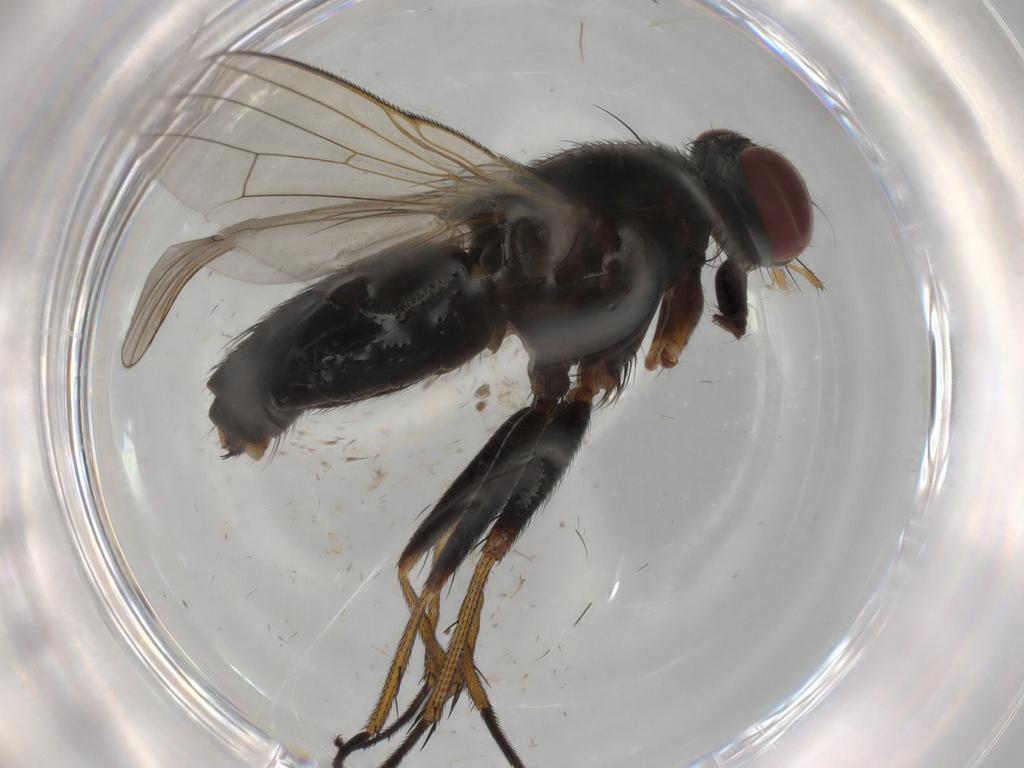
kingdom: Animalia
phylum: Arthropoda
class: Insecta
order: Diptera
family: Muscidae
